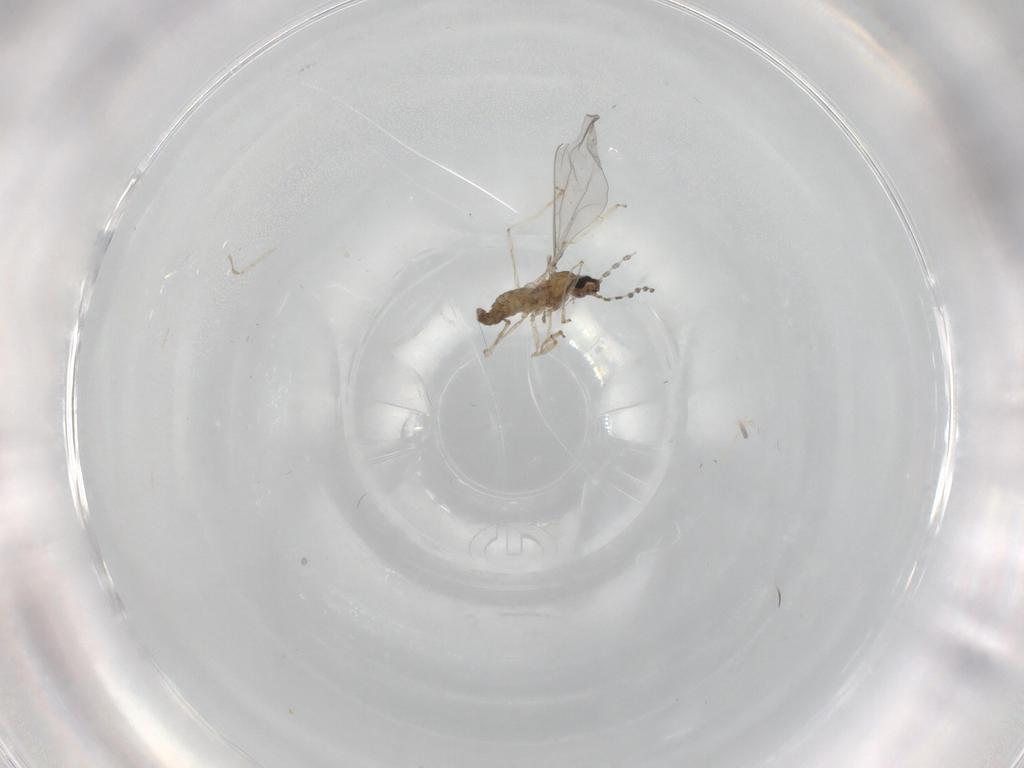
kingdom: Animalia
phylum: Arthropoda
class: Insecta
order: Diptera
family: Cecidomyiidae
